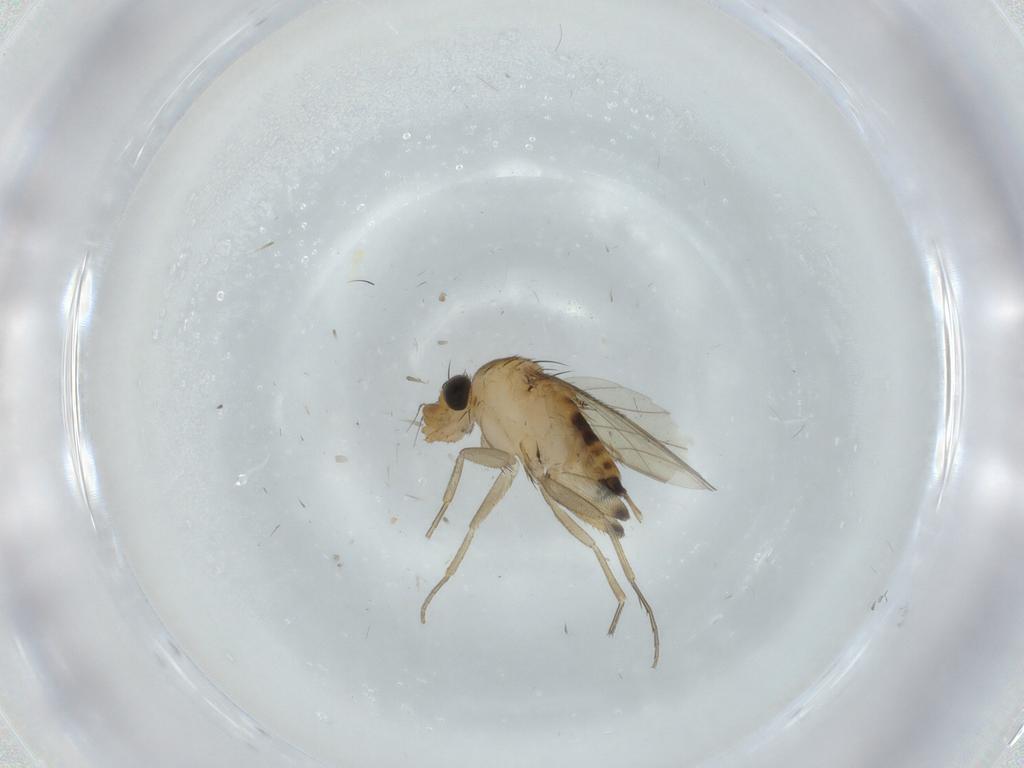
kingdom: Animalia
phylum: Arthropoda
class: Insecta
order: Diptera
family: Phoridae
